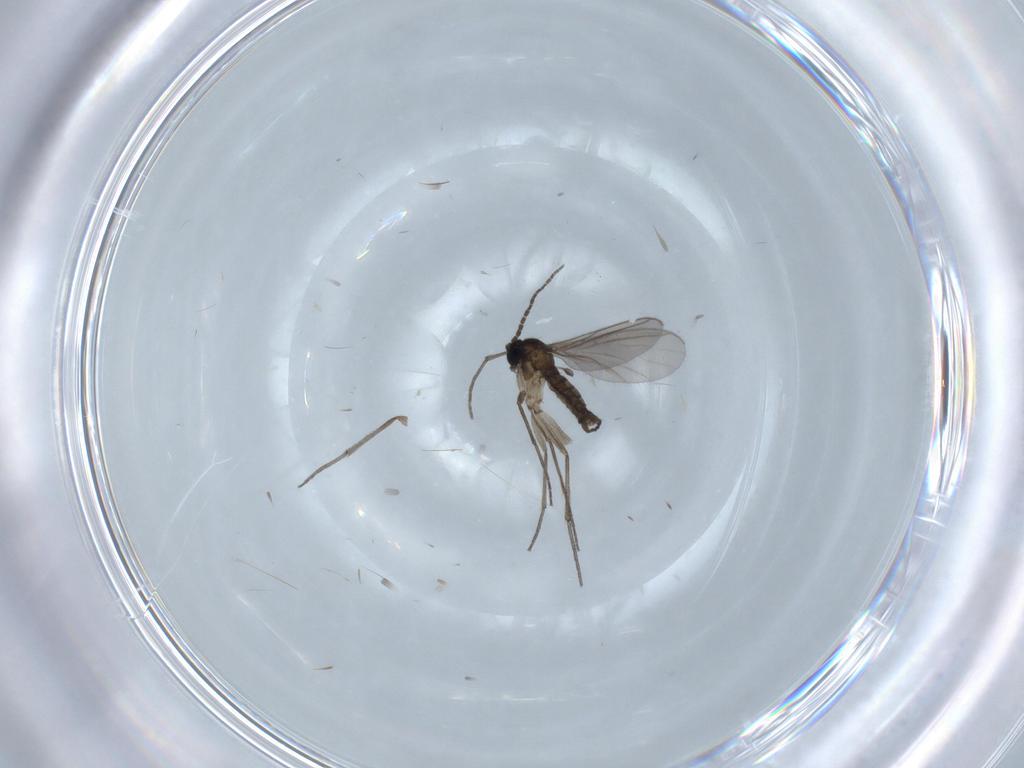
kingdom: Animalia
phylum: Arthropoda
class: Insecta
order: Diptera
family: Sciaridae
